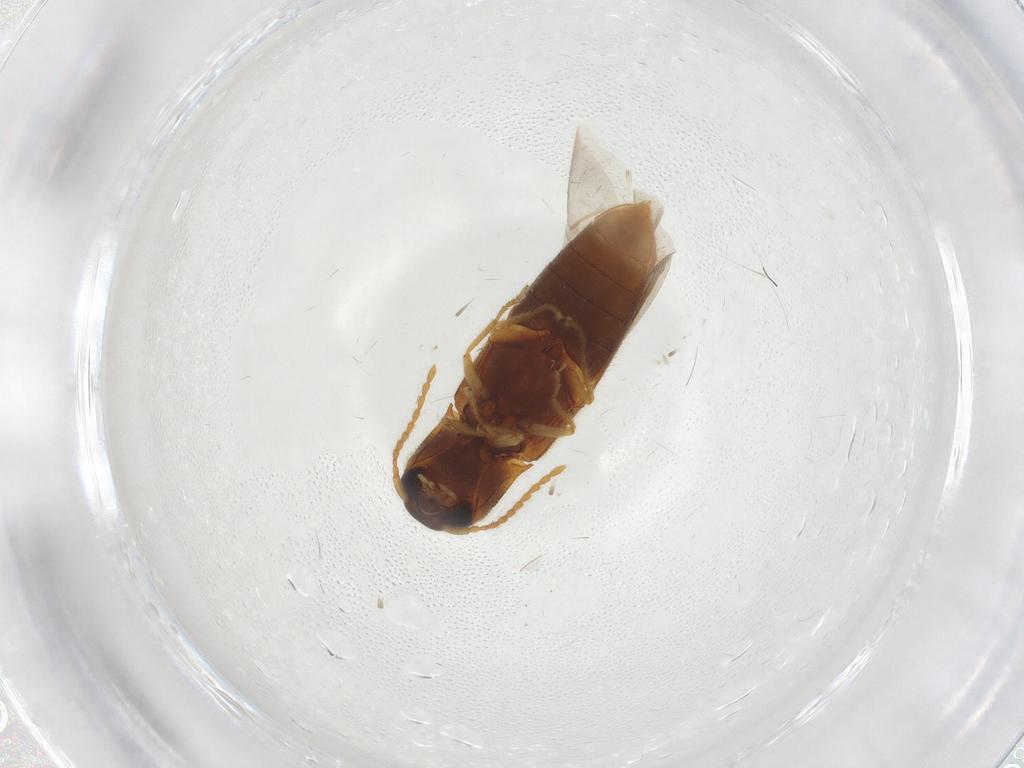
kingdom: Animalia
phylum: Arthropoda
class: Insecta
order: Coleoptera
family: Elateridae
